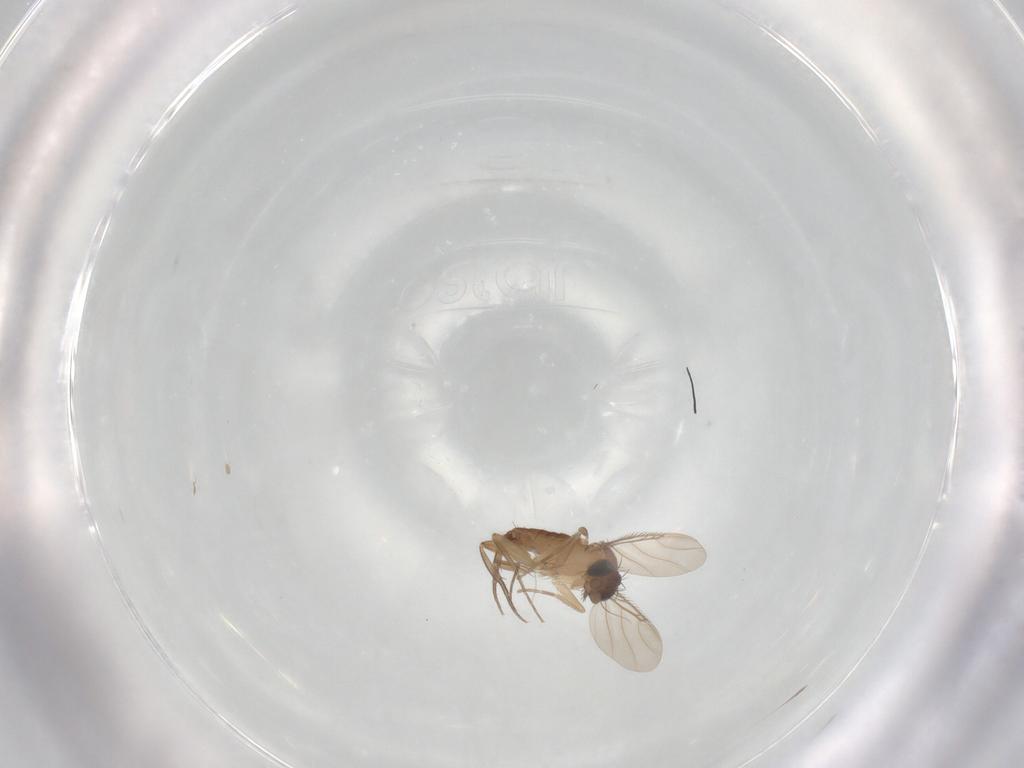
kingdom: Animalia
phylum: Arthropoda
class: Insecta
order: Diptera
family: Phoridae
